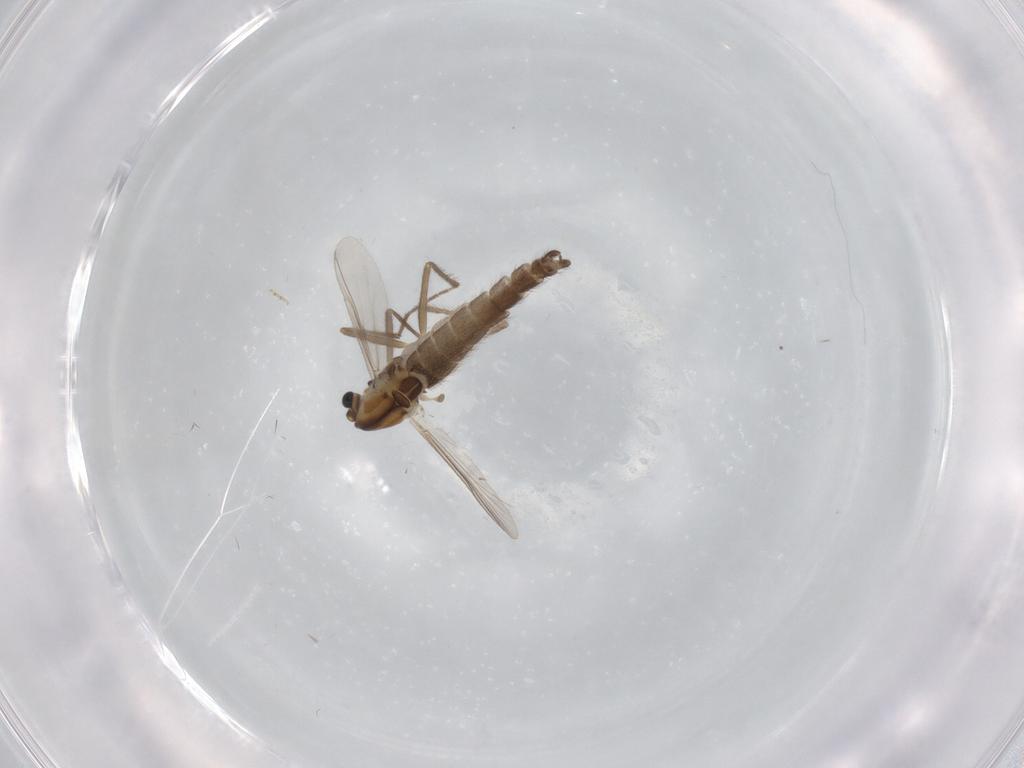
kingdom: Animalia
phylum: Arthropoda
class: Insecta
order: Diptera
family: Chironomidae
